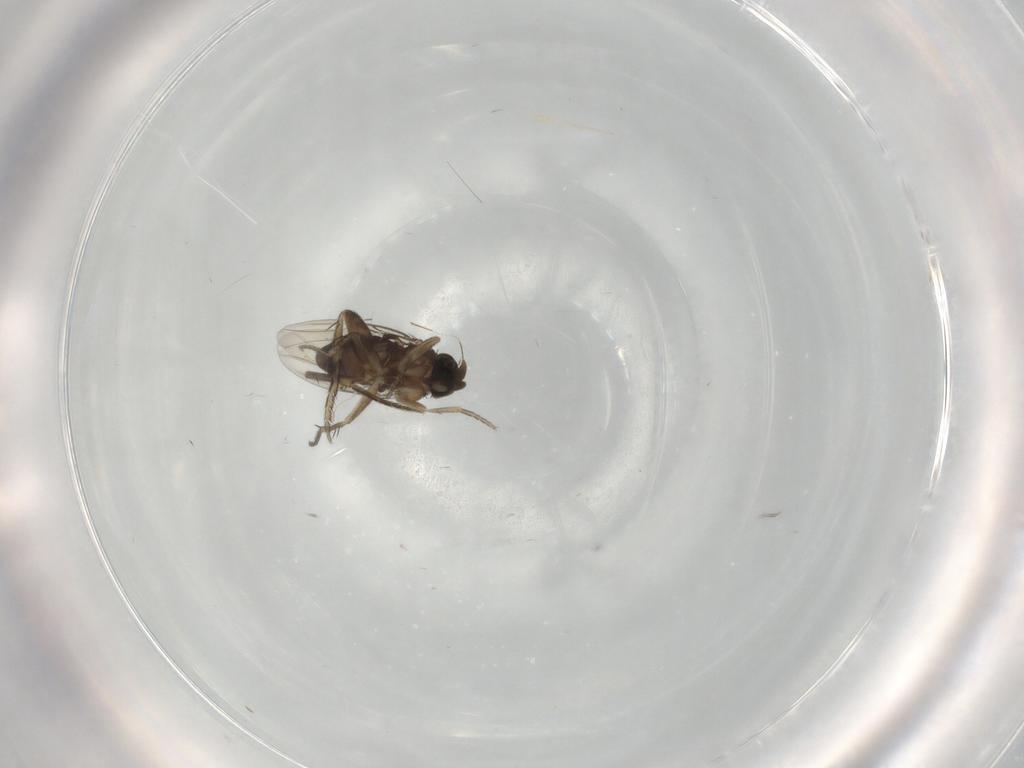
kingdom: Animalia
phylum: Arthropoda
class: Insecta
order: Diptera
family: Phoridae
